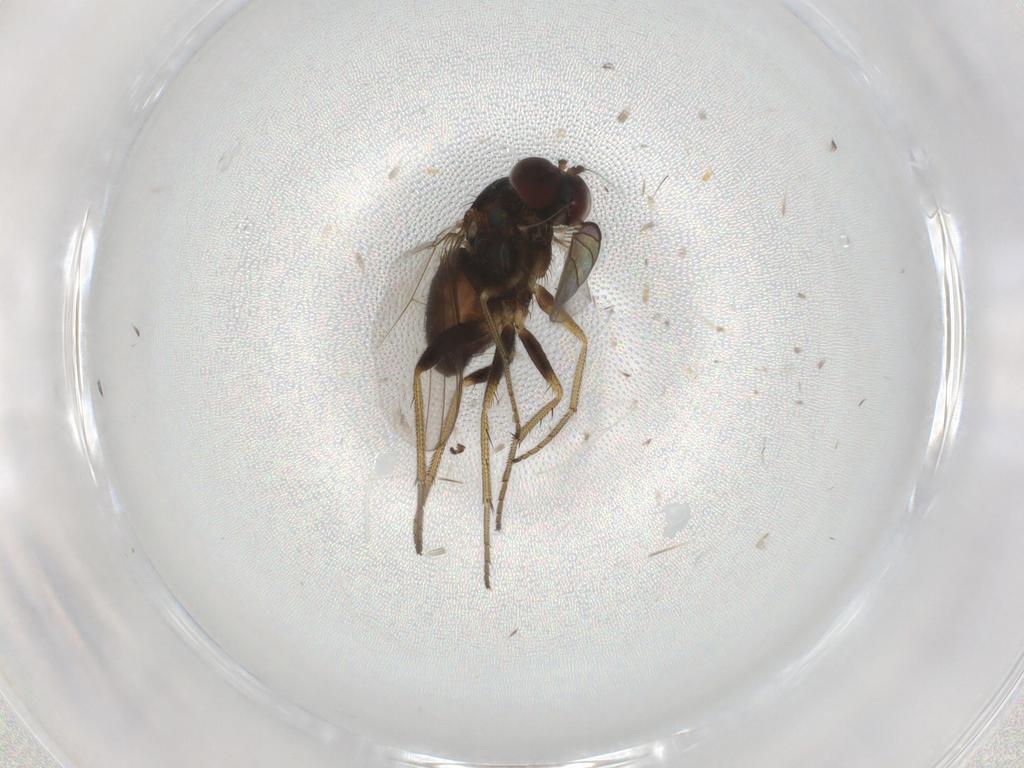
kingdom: Animalia
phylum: Arthropoda
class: Insecta
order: Diptera
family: Dolichopodidae
